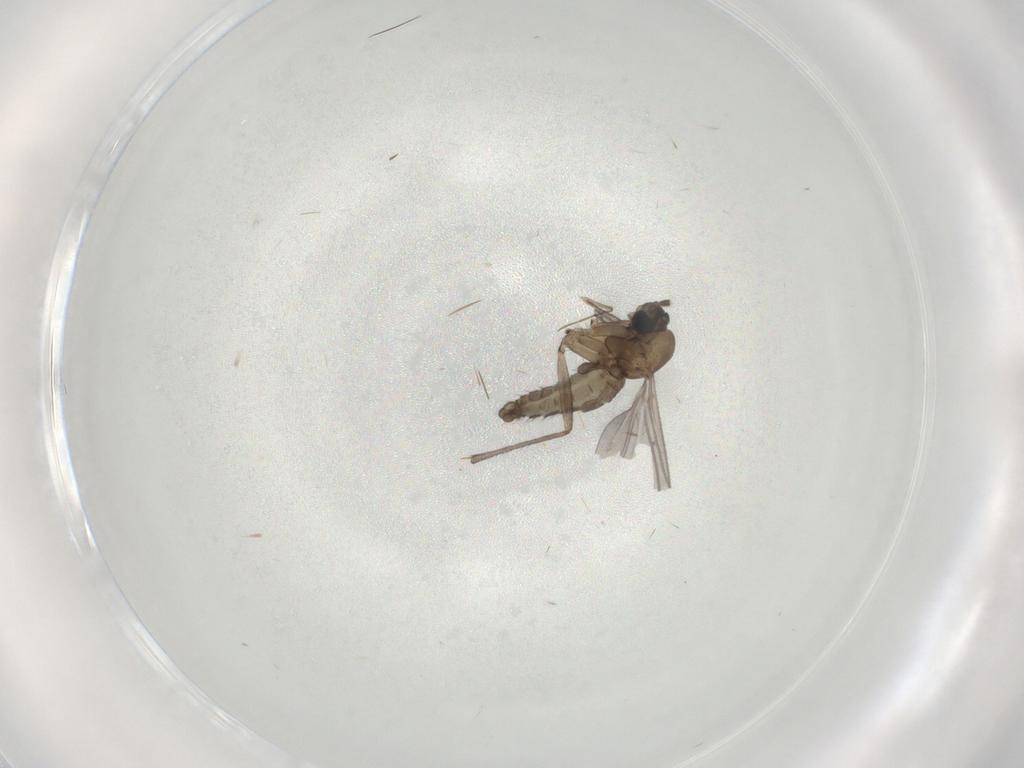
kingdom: Animalia
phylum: Arthropoda
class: Insecta
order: Diptera
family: Sciaridae
